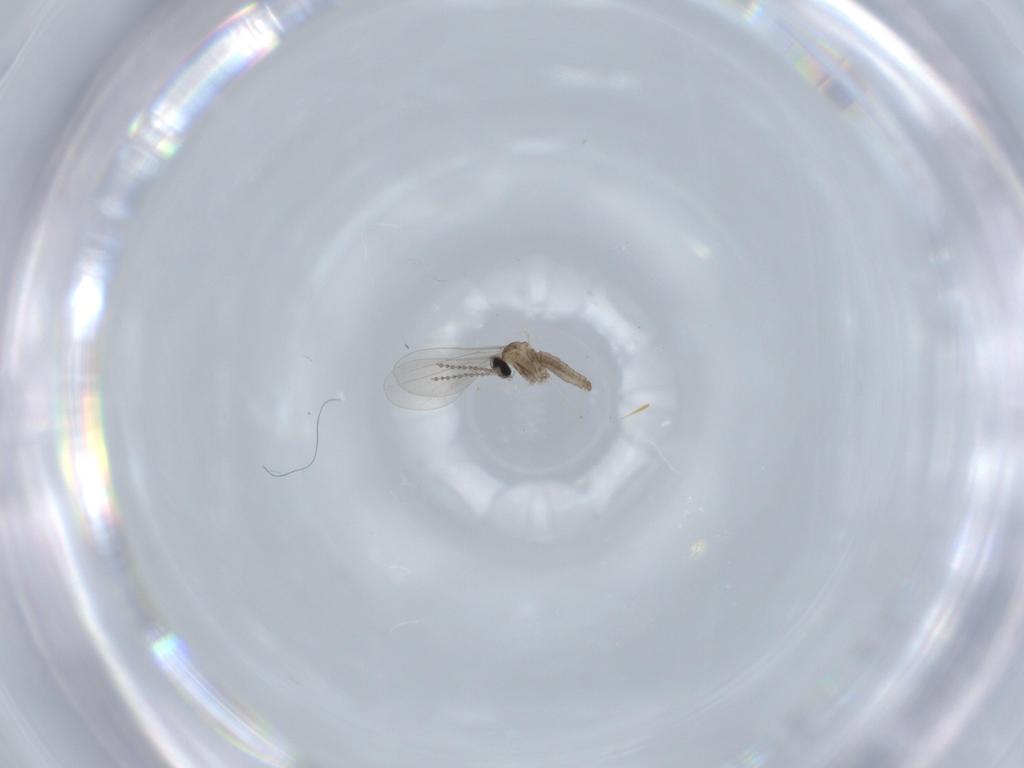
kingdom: Animalia
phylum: Arthropoda
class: Insecta
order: Diptera
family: Cecidomyiidae
